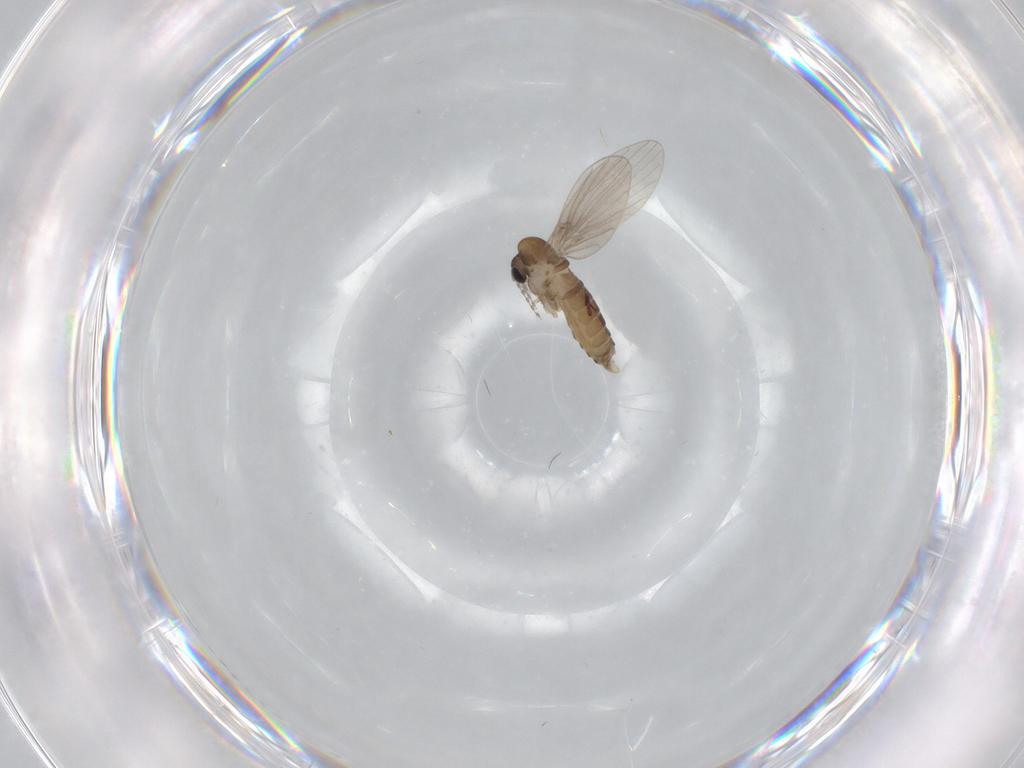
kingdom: Animalia
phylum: Arthropoda
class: Insecta
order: Diptera
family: Psychodidae
